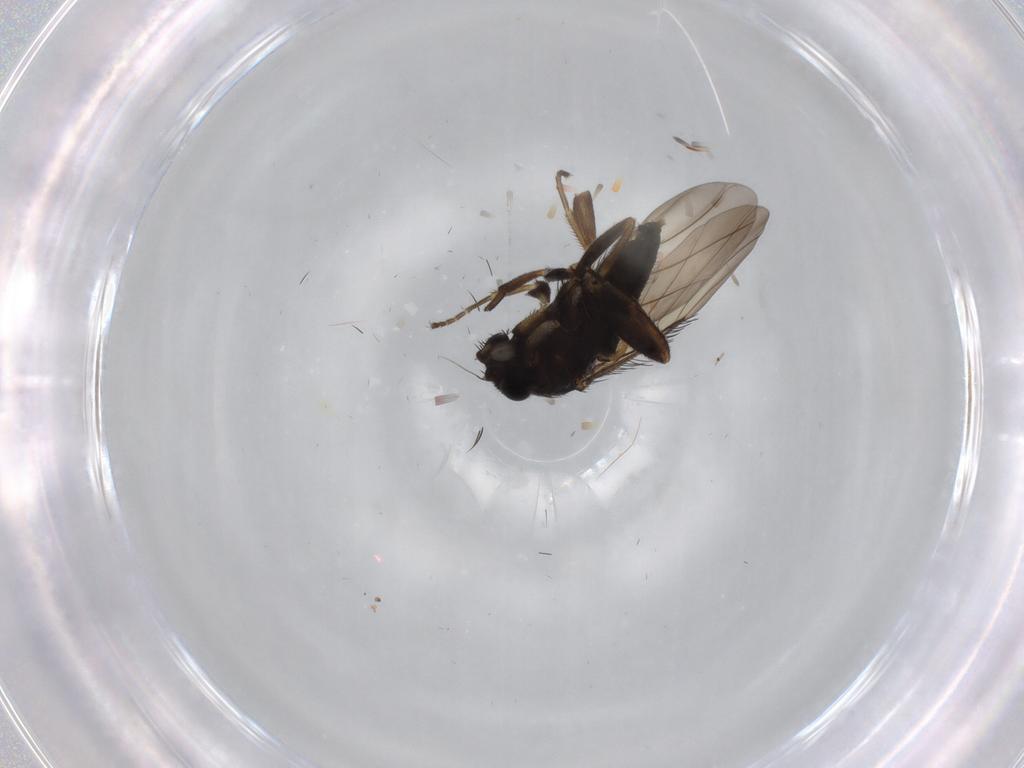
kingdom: Animalia
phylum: Arthropoda
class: Insecta
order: Diptera
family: Phoridae
